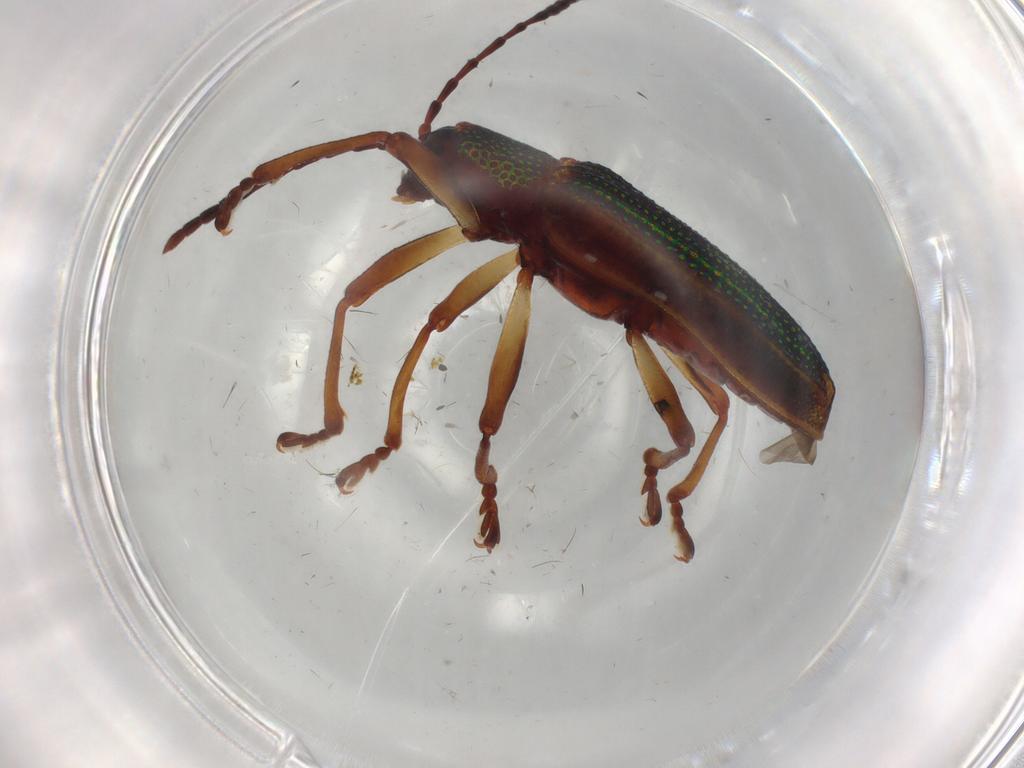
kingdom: Animalia
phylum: Arthropoda
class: Insecta
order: Coleoptera
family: Chrysomelidae
